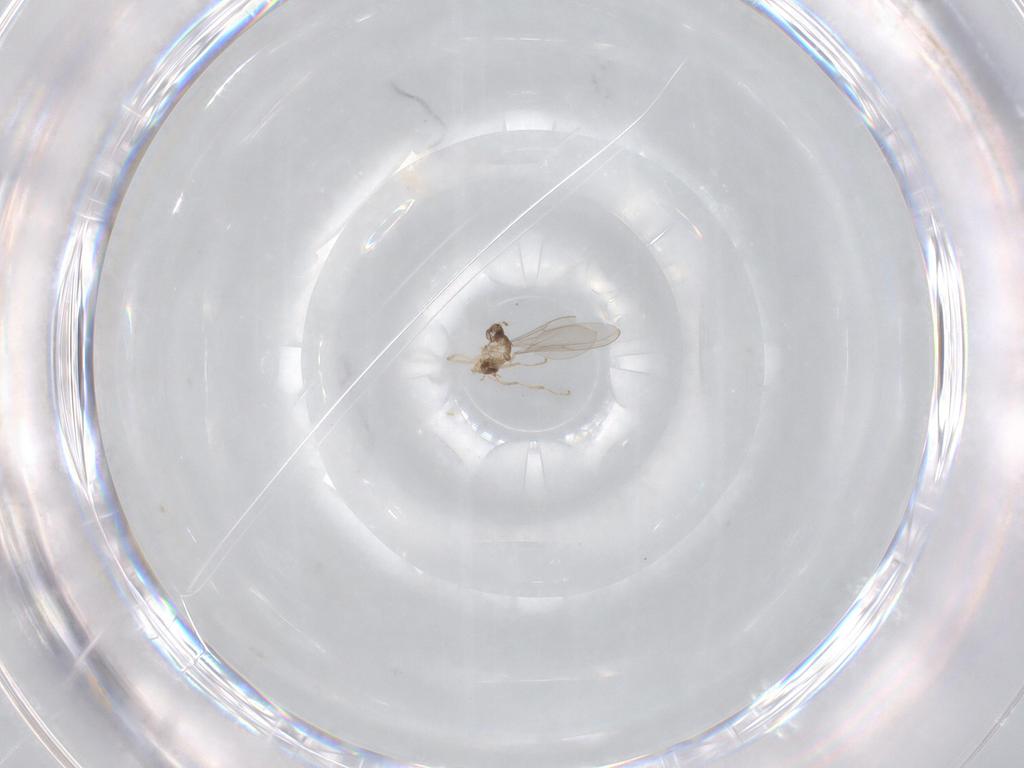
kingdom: Animalia
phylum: Arthropoda
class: Insecta
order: Diptera
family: Psychodidae
